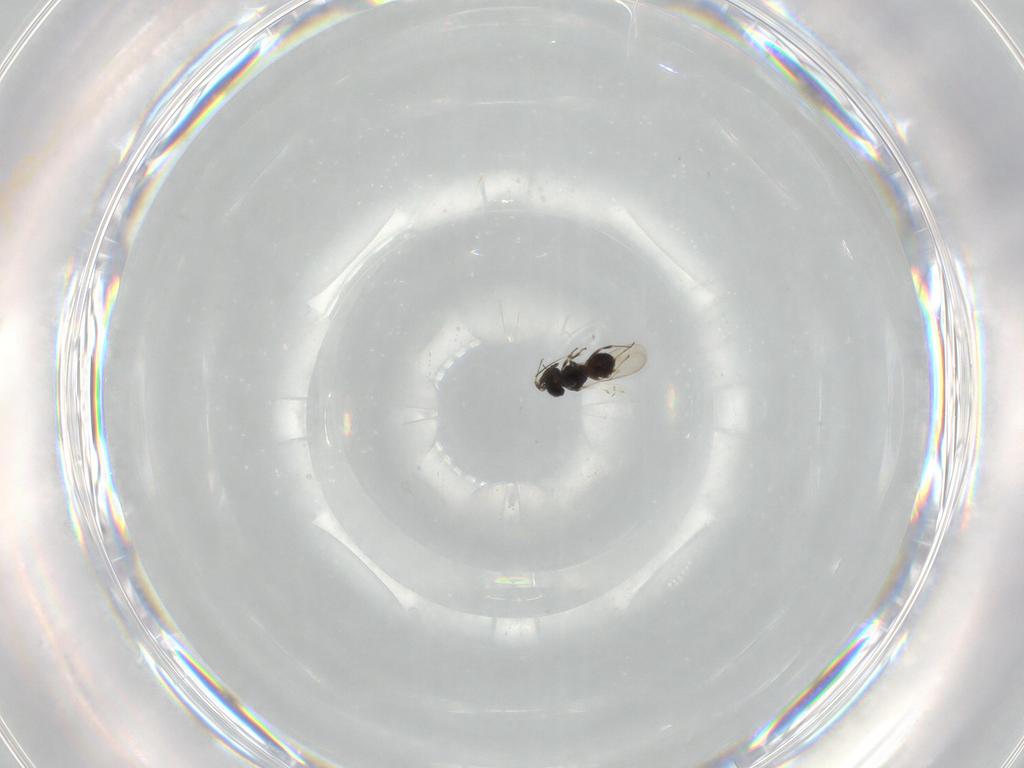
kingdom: Animalia
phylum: Arthropoda
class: Insecta
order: Hymenoptera
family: Scelionidae
